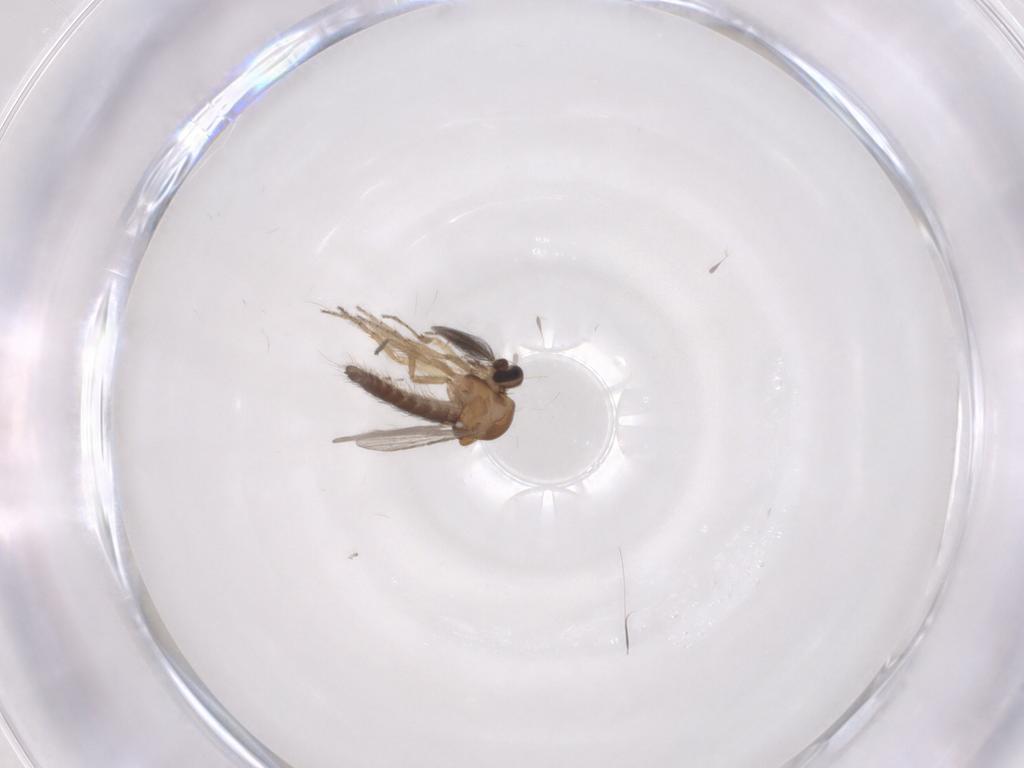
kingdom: Animalia
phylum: Arthropoda
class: Insecta
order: Diptera
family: Ceratopogonidae
